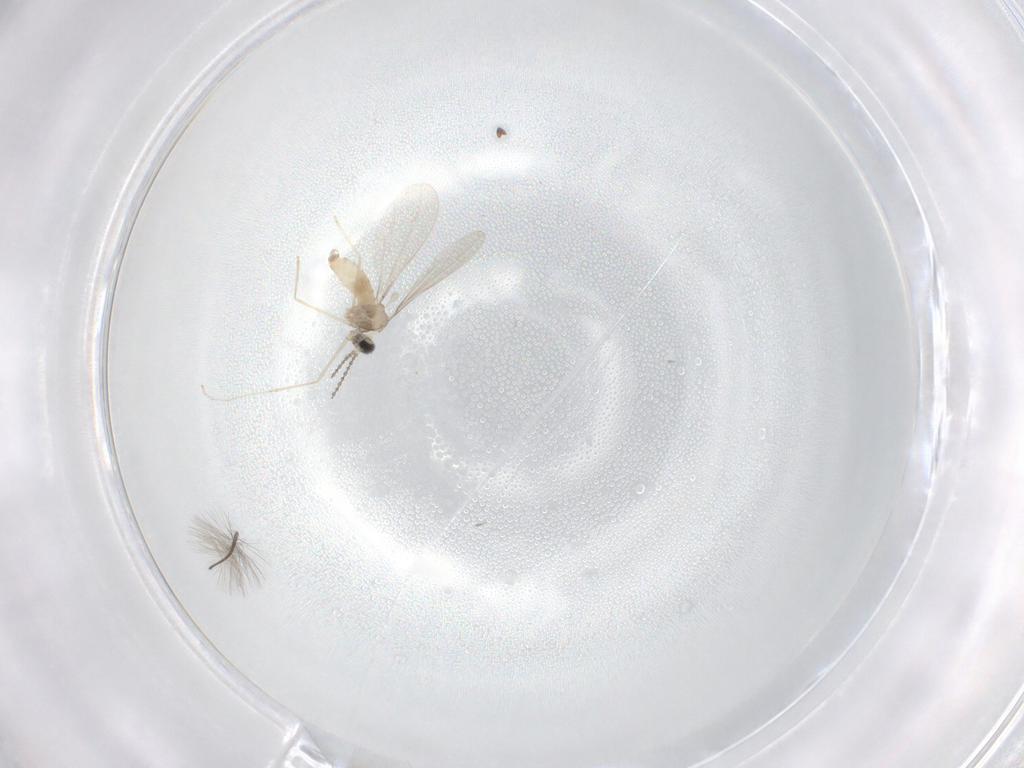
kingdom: Animalia
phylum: Arthropoda
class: Insecta
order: Diptera
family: Cecidomyiidae
